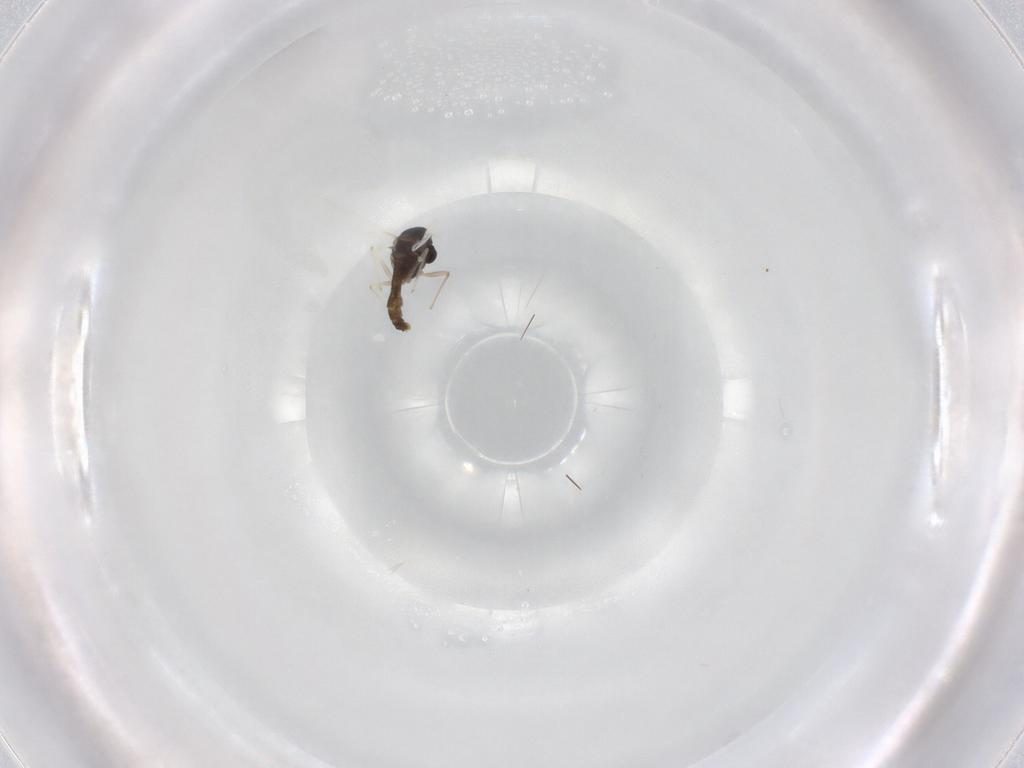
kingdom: Animalia
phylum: Arthropoda
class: Insecta
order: Diptera
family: Chironomidae
